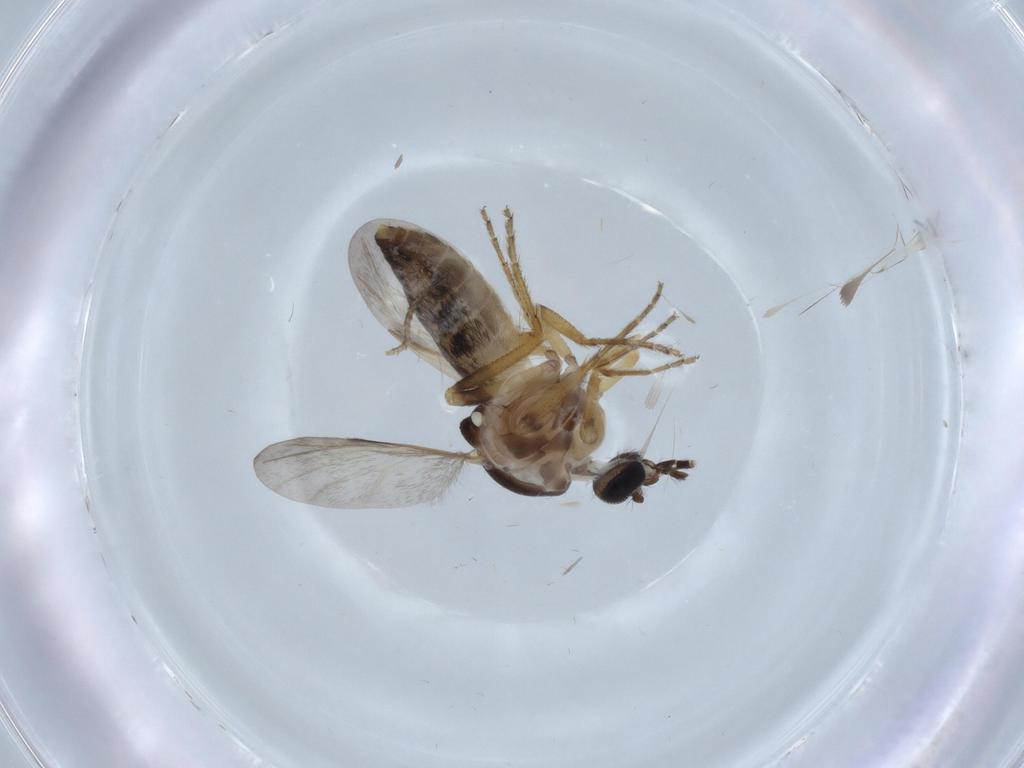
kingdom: Animalia
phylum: Arthropoda
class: Insecta
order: Diptera
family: Cecidomyiidae
